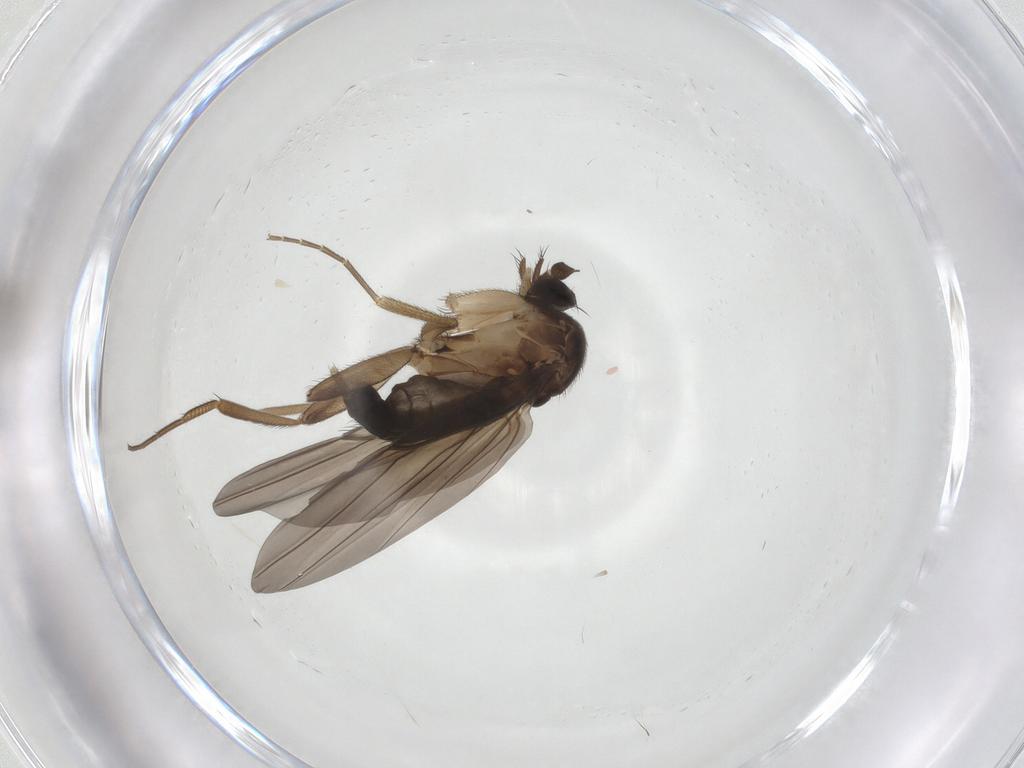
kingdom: Animalia
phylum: Arthropoda
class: Insecta
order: Diptera
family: Phoridae
